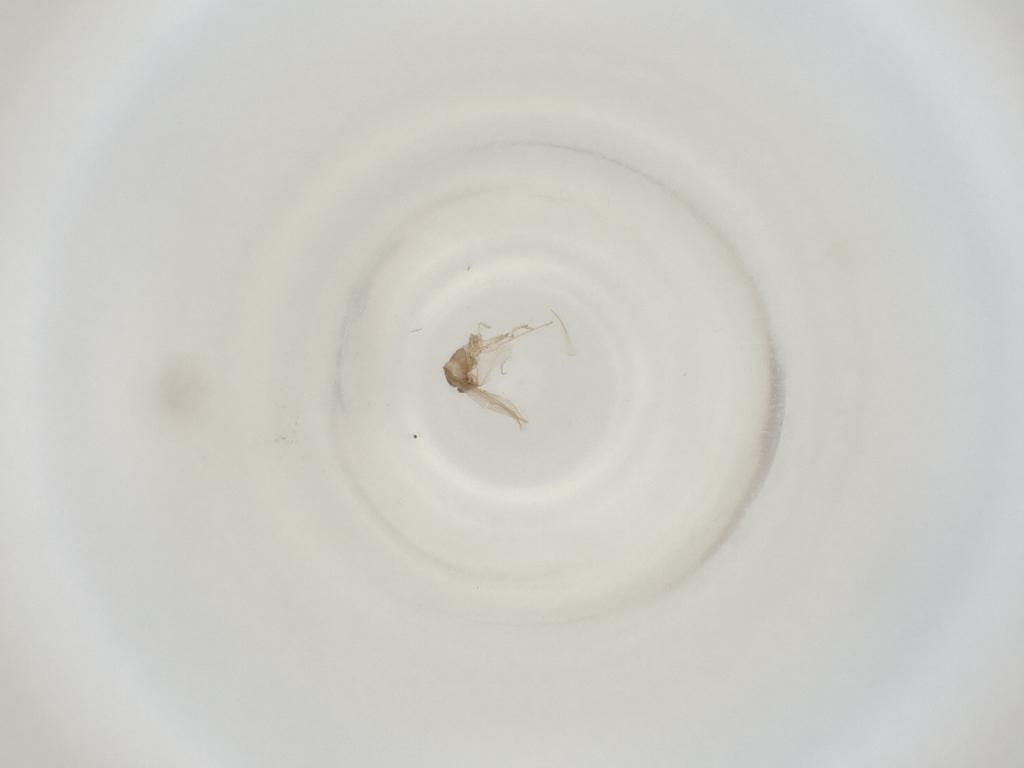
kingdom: Animalia
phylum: Arthropoda
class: Insecta
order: Diptera
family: Cecidomyiidae
